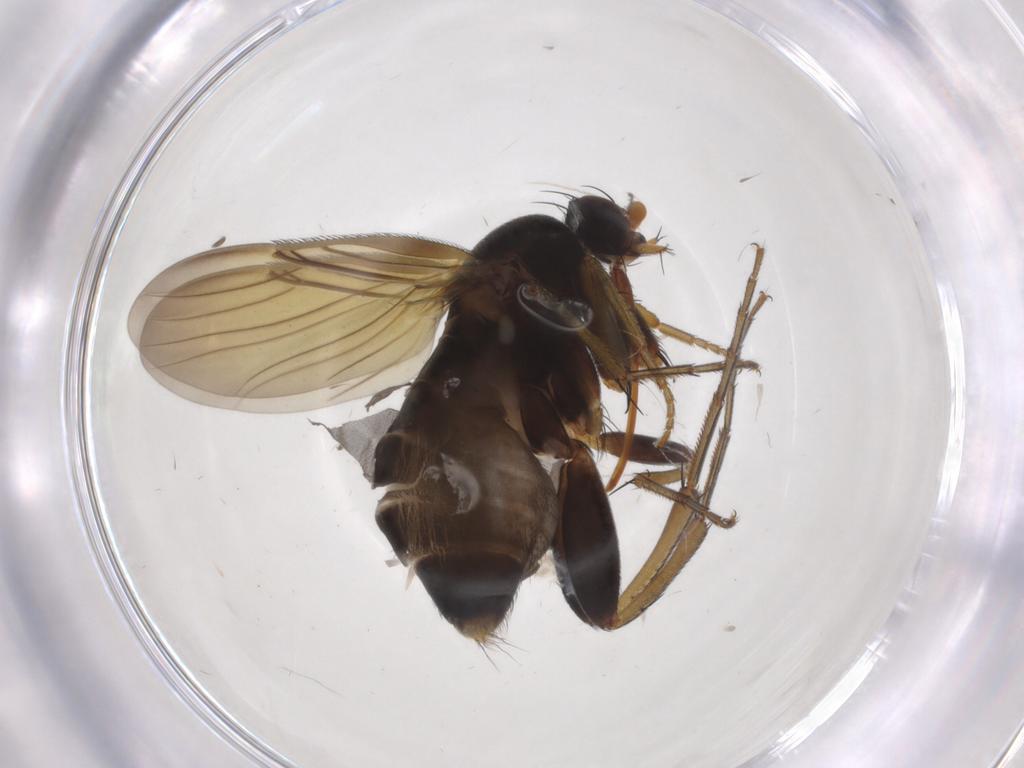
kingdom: Animalia
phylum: Arthropoda
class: Insecta
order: Diptera
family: Phoridae
